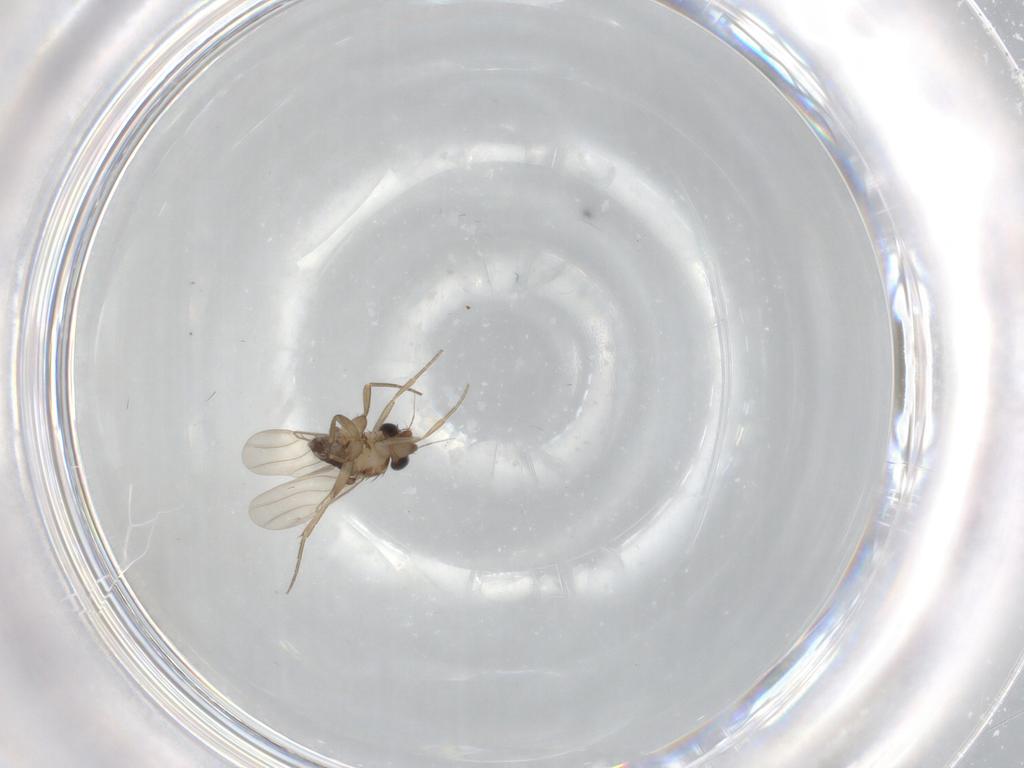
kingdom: Animalia
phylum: Arthropoda
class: Insecta
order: Diptera
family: Phoridae
